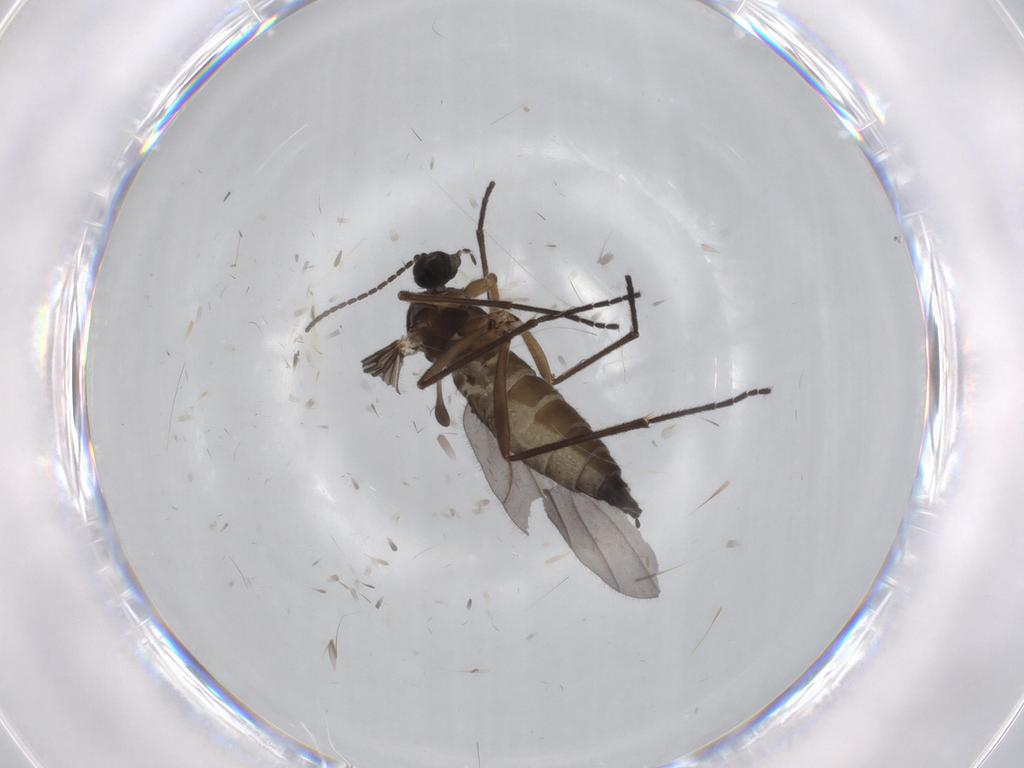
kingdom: Animalia
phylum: Arthropoda
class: Insecta
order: Diptera
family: Sciaridae
